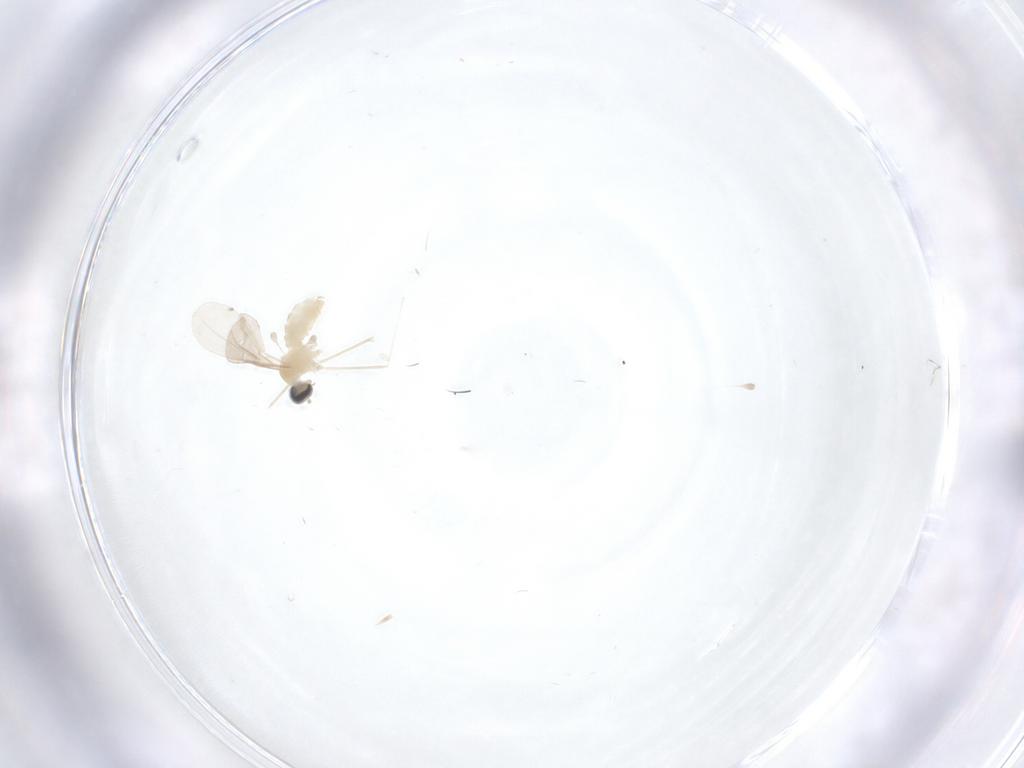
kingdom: Animalia
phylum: Arthropoda
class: Insecta
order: Diptera
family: Cecidomyiidae
